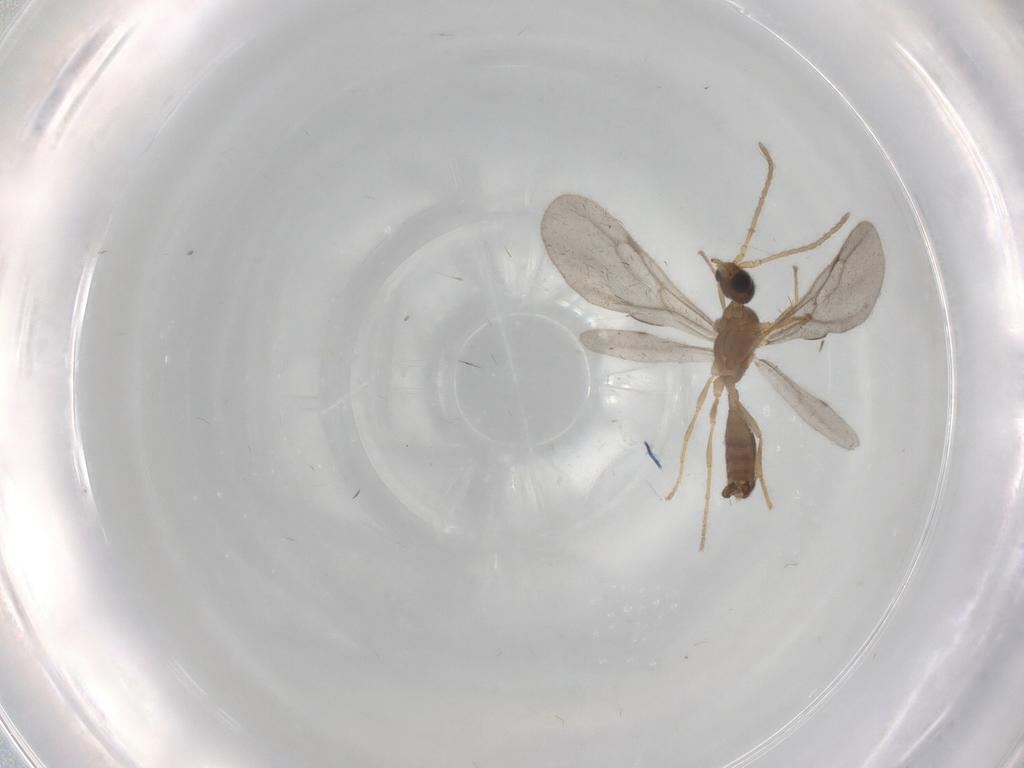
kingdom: Animalia
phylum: Arthropoda
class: Insecta
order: Hymenoptera
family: Formicidae
